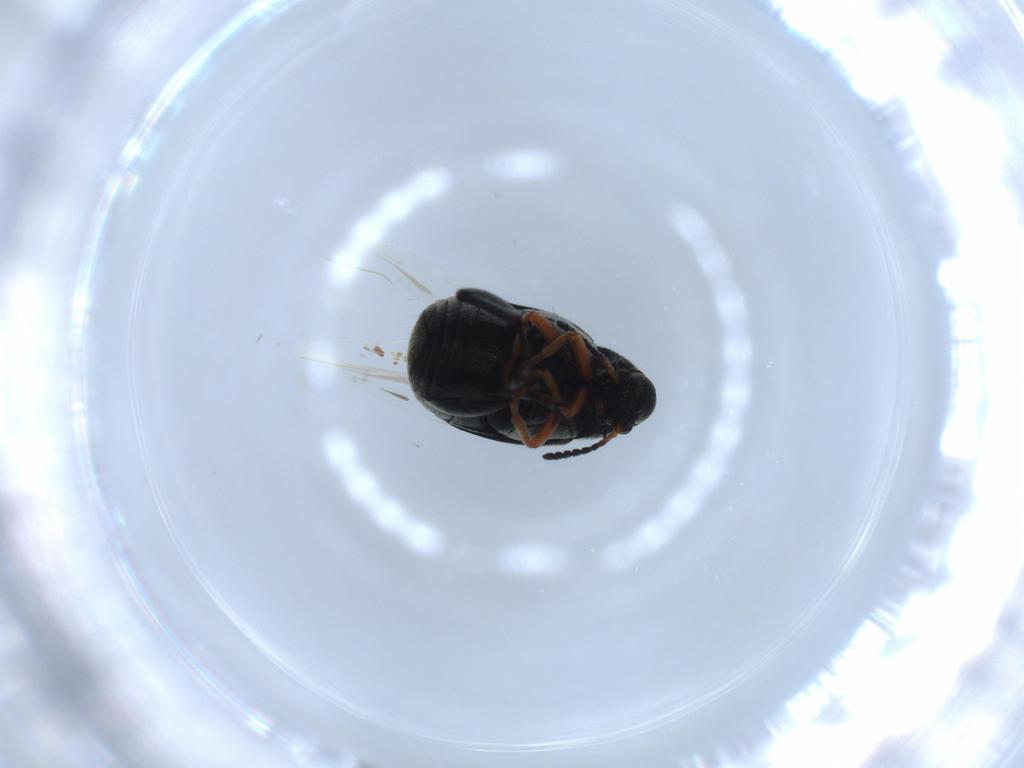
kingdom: Animalia
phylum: Arthropoda
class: Insecta
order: Coleoptera
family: Chrysomelidae
